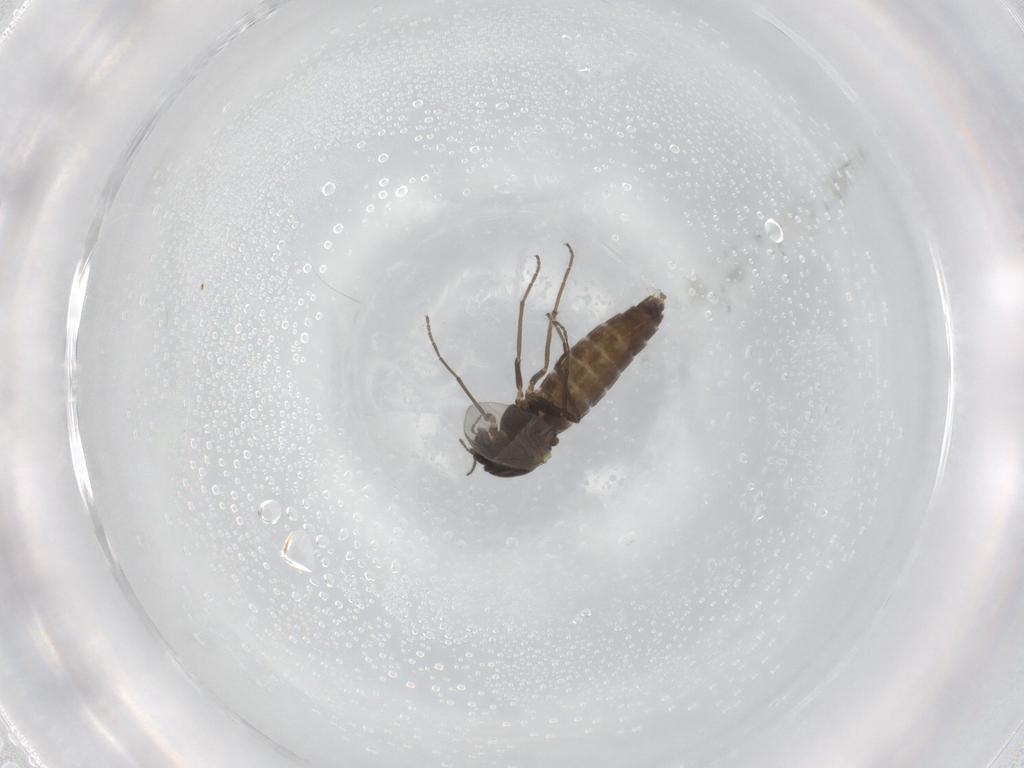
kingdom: Animalia
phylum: Arthropoda
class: Insecta
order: Diptera
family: Chironomidae
